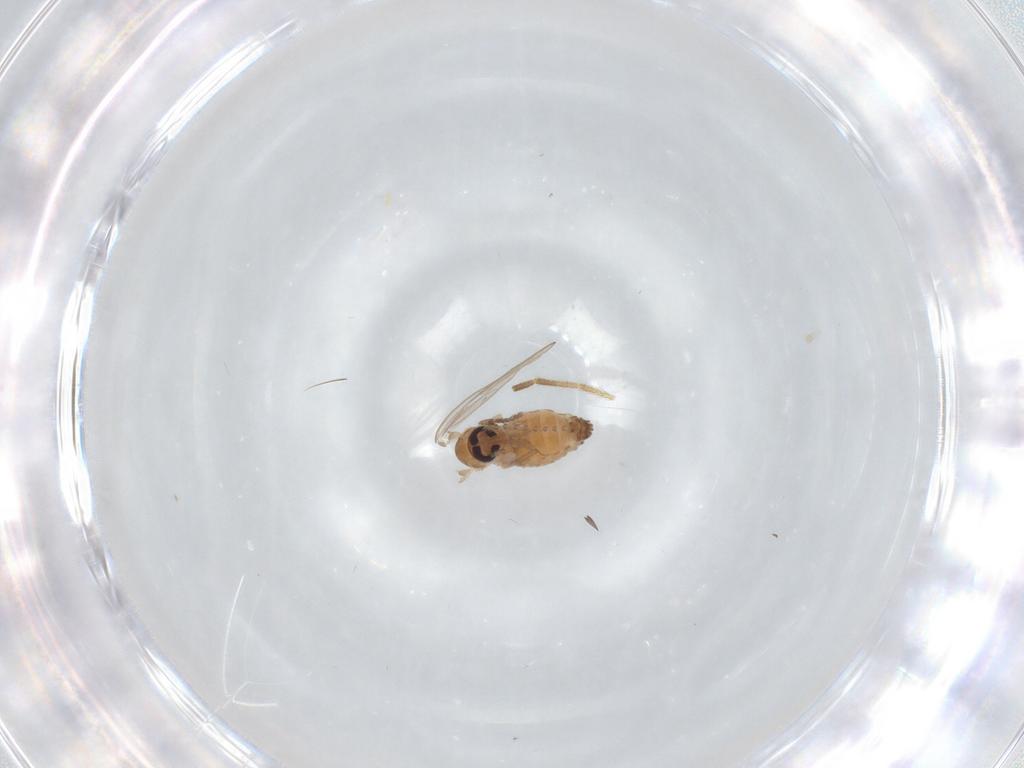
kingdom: Animalia
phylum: Arthropoda
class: Insecta
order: Diptera
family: Psychodidae
